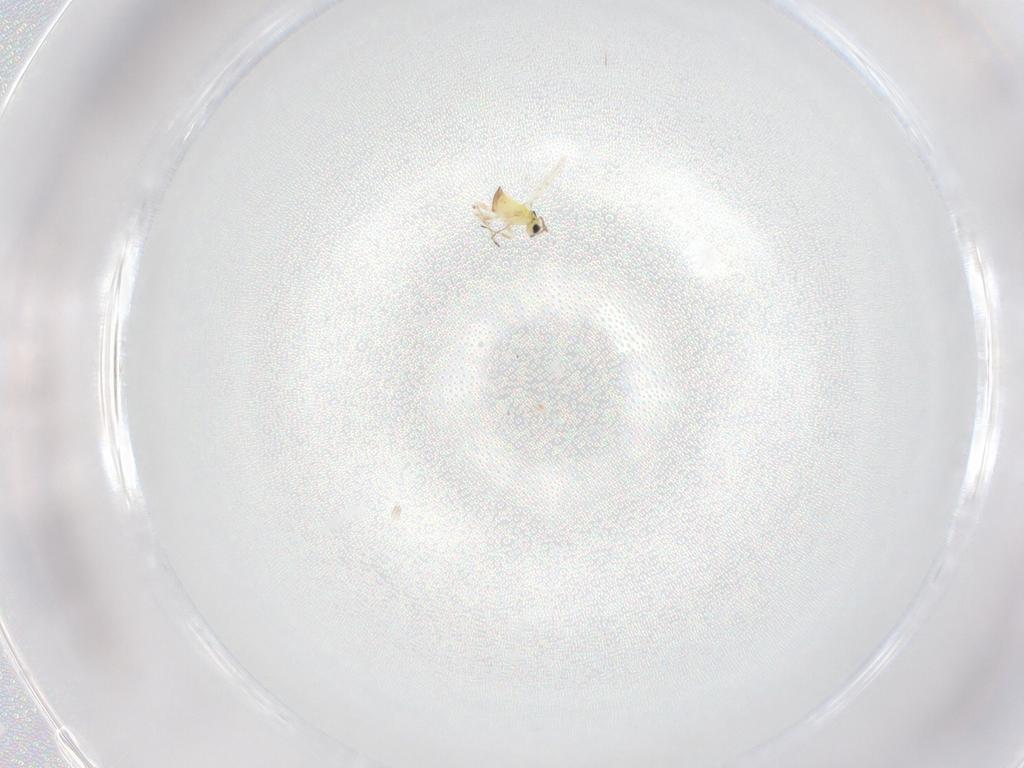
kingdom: Animalia
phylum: Arthropoda
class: Insecta
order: Hymenoptera
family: Trichogrammatidae
